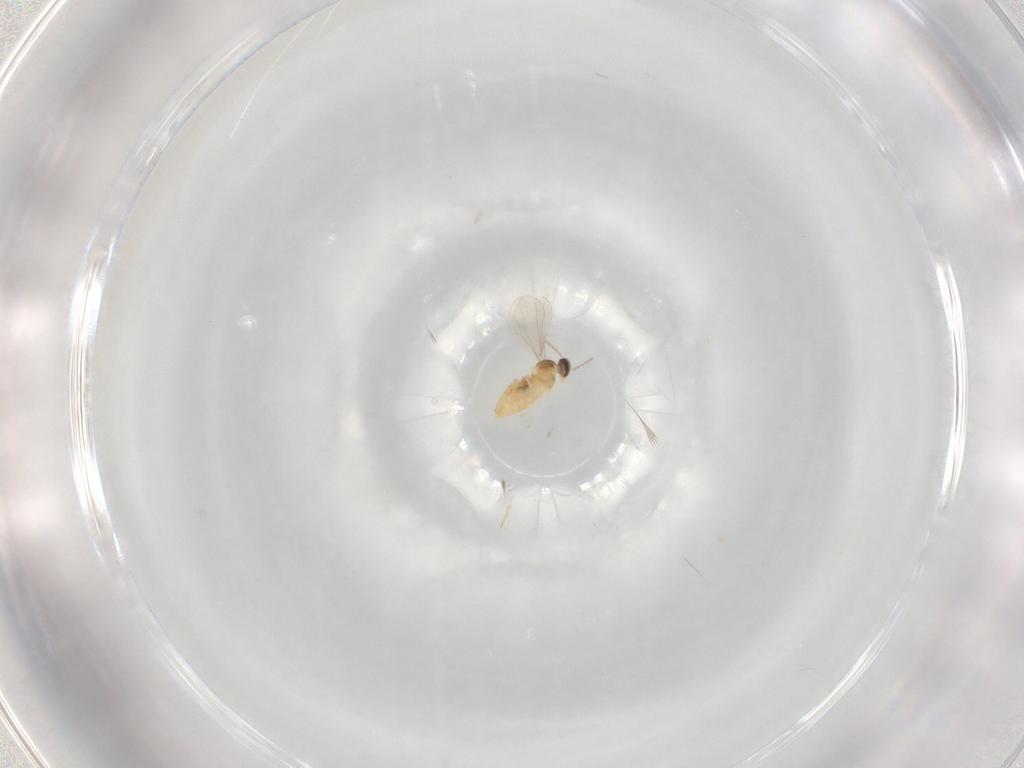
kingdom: Animalia
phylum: Arthropoda
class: Insecta
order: Diptera
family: Cecidomyiidae
